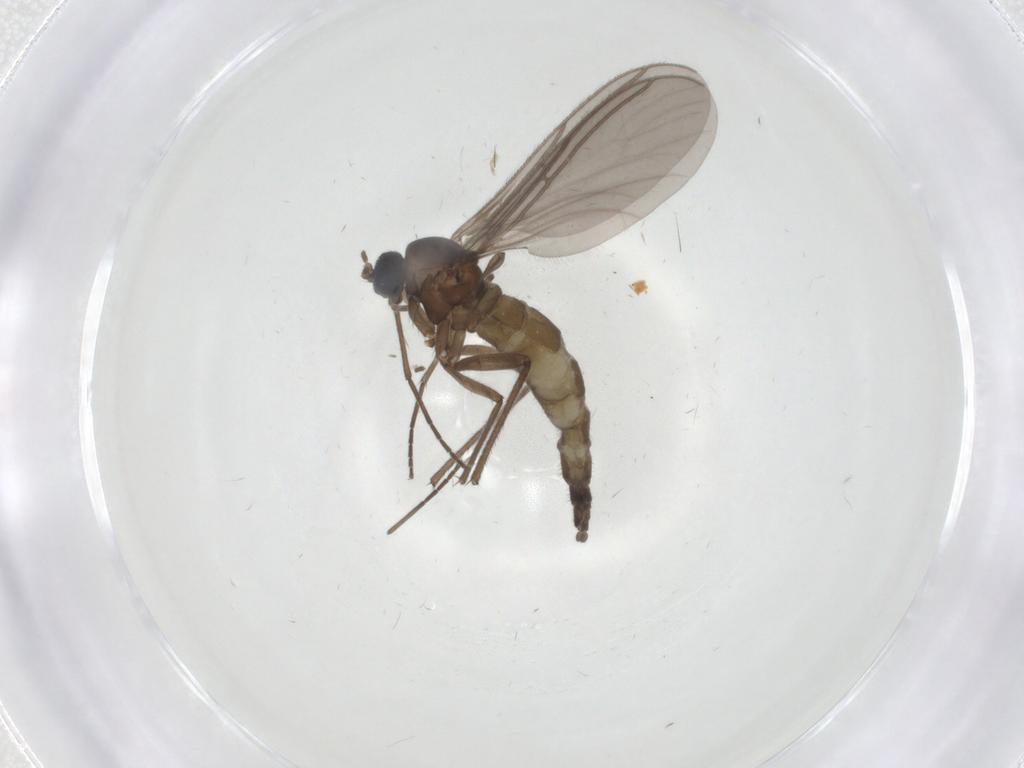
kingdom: Animalia
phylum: Arthropoda
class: Insecta
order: Diptera
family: Sciaridae
